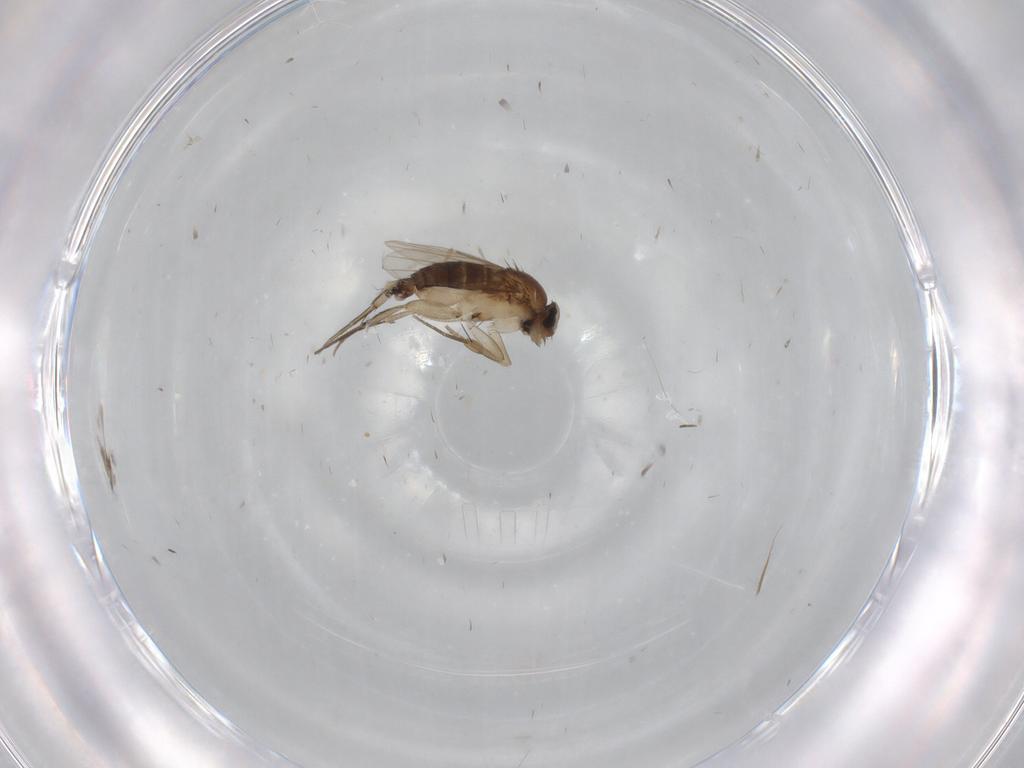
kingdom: Animalia
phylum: Arthropoda
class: Insecta
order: Diptera
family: Phoridae
